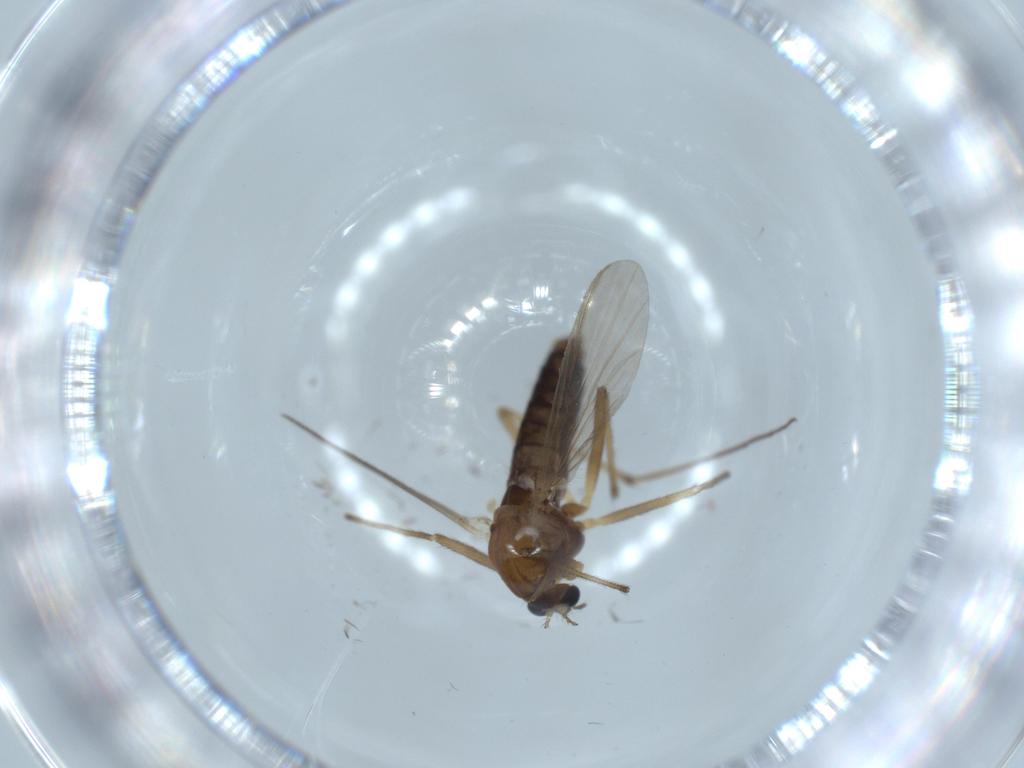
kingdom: Animalia
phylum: Arthropoda
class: Insecta
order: Diptera
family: Chironomidae
